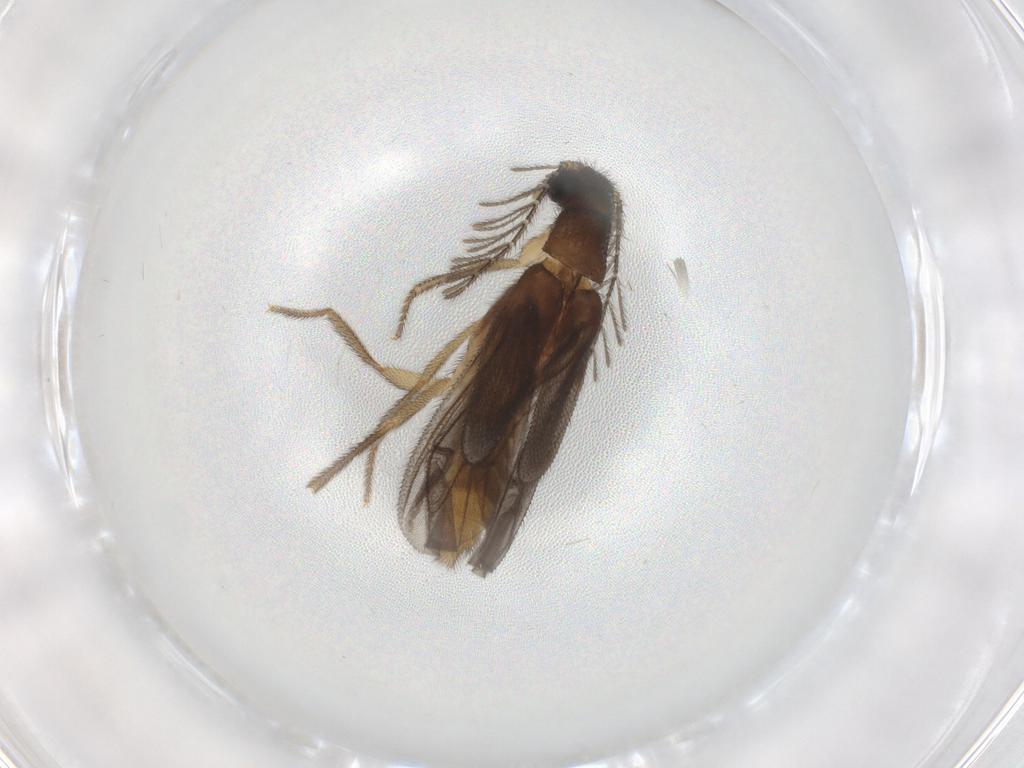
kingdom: Animalia
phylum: Arthropoda
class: Insecta
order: Coleoptera
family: Phengodidae
